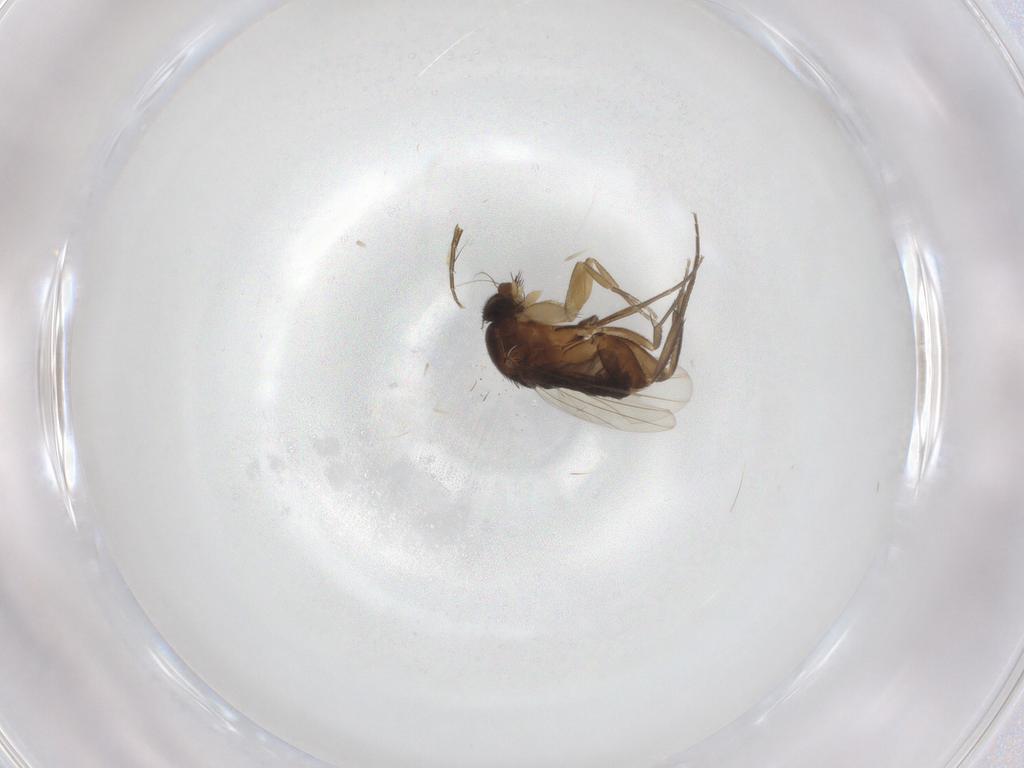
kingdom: Animalia
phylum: Arthropoda
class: Insecta
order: Diptera
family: Phoridae
